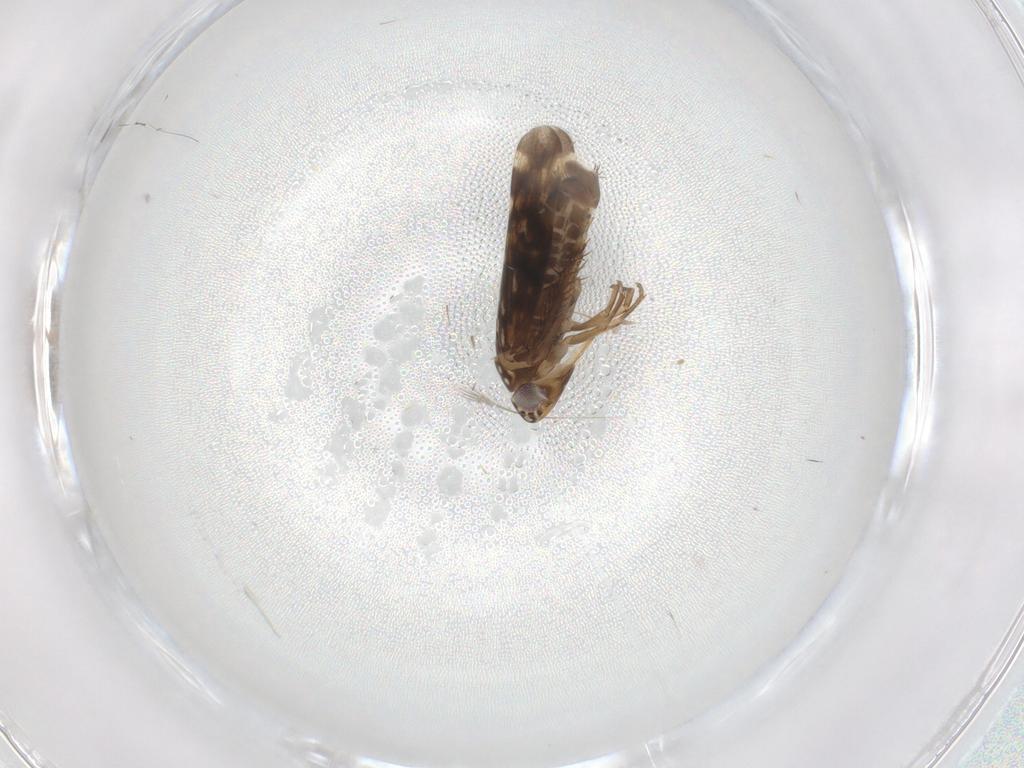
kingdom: Animalia
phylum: Arthropoda
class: Insecta
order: Hemiptera
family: Cicadellidae
